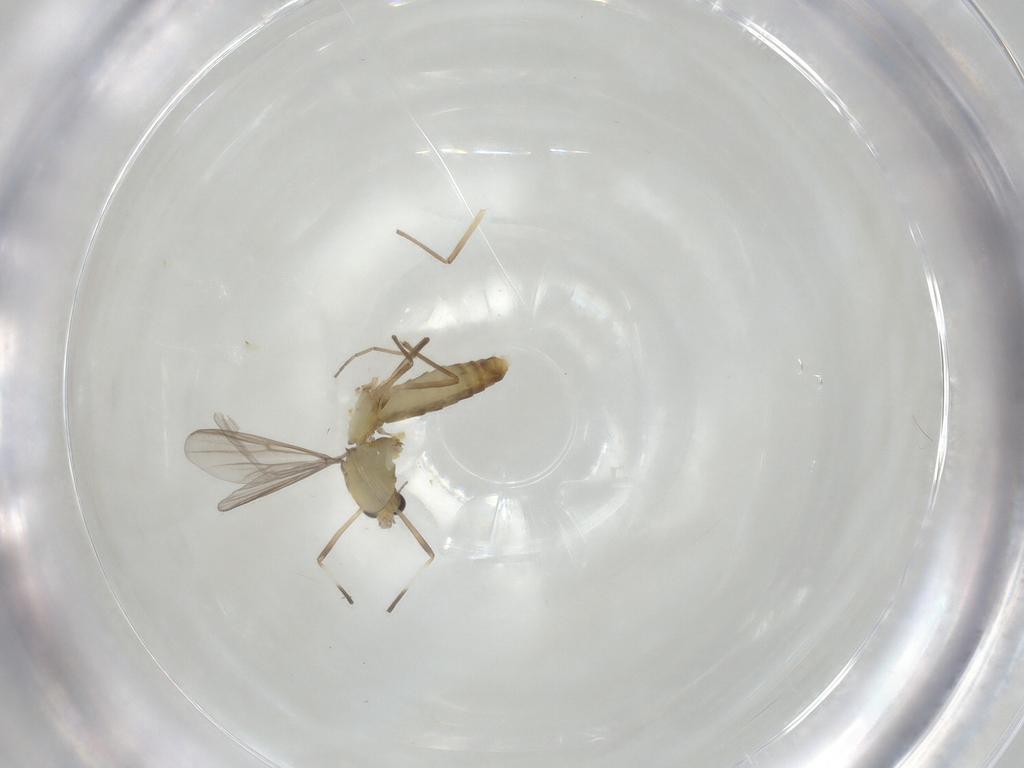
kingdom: Animalia
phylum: Arthropoda
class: Insecta
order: Diptera
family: Chironomidae
